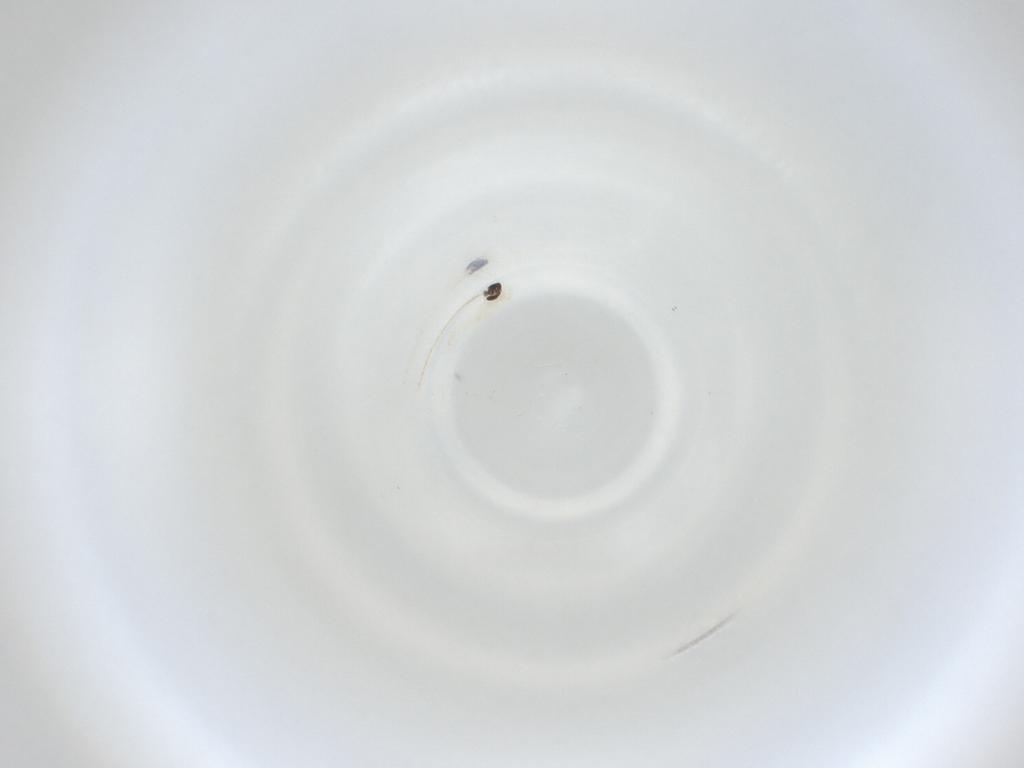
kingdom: Animalia
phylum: Arthropoda
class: Insecta
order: Diptera
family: Cecidomyiidae
